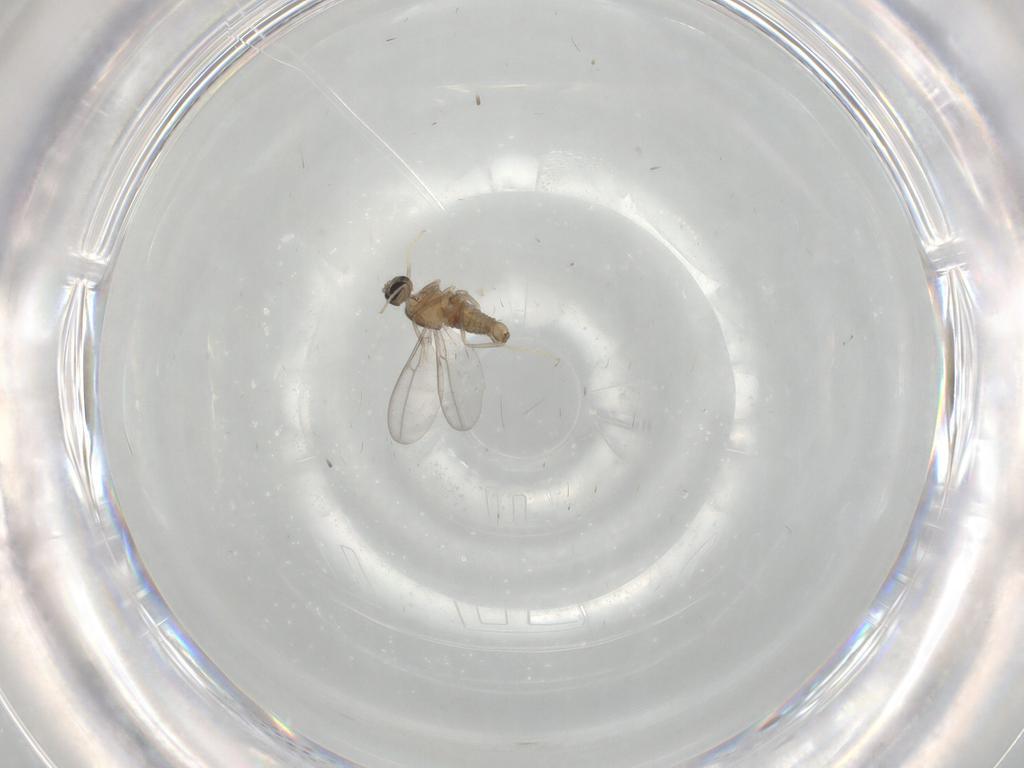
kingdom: Animalia
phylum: Arthropoda
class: Insecta
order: Diptera
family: Cecidomyiidae
